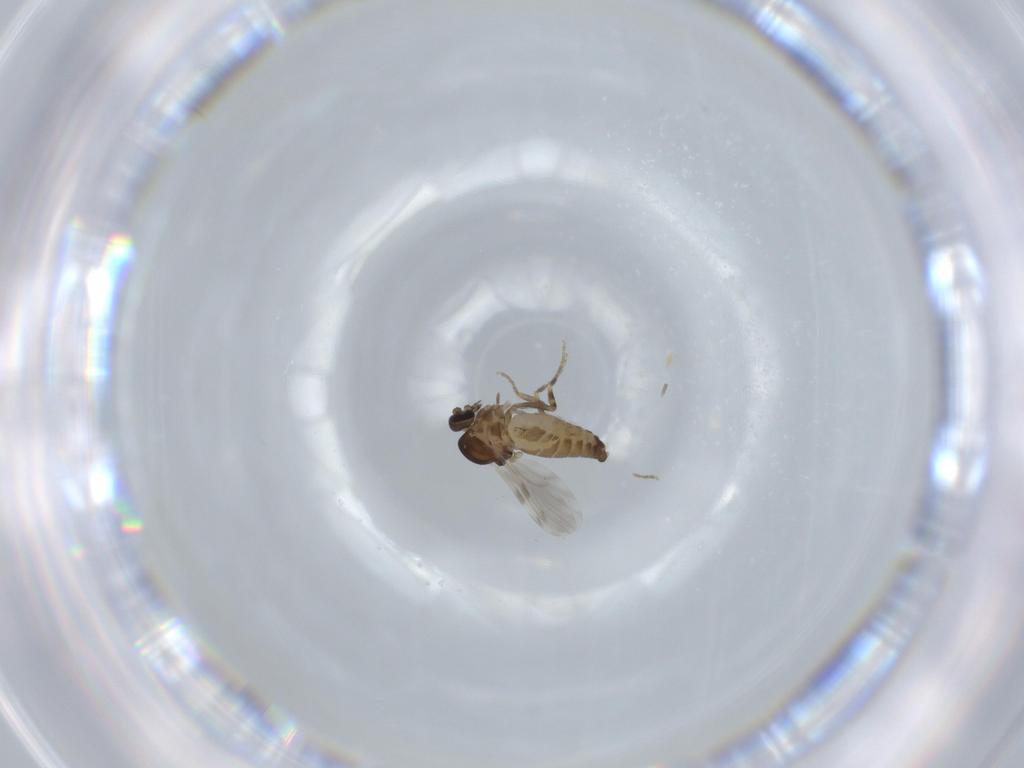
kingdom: Animalia
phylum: Arthropoda
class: Insecta
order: Diptera
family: Ceratopogonidae
